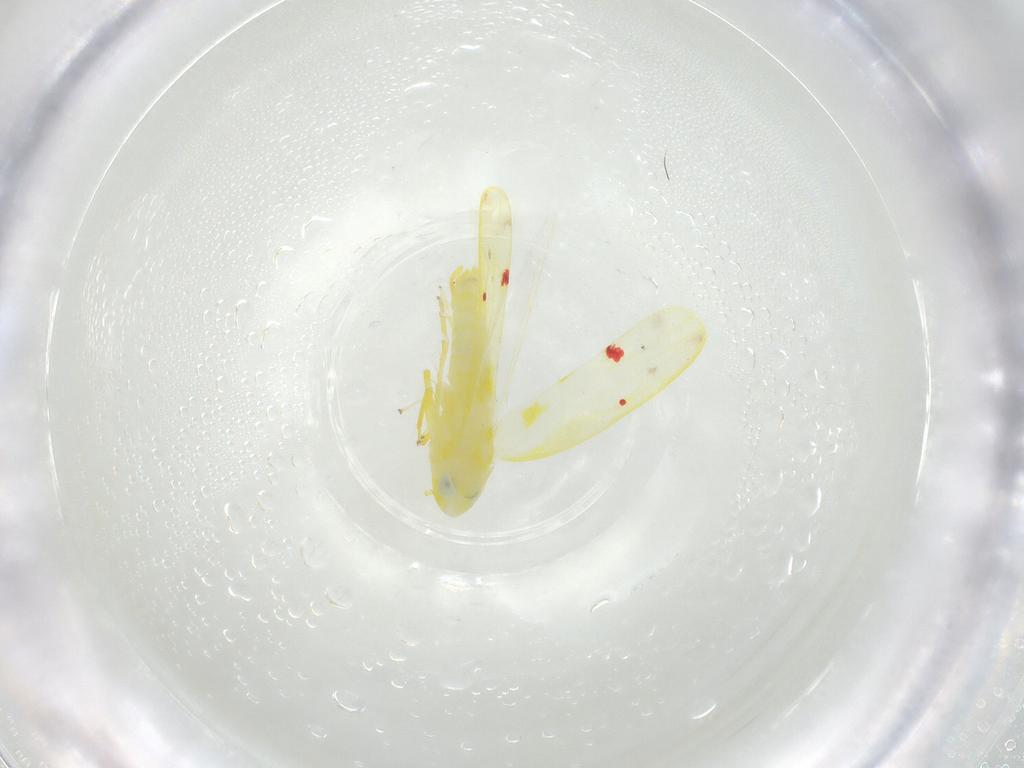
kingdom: Animalia
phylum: Arthropoda
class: Insecta
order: Hemiptera
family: Cicadellidae
